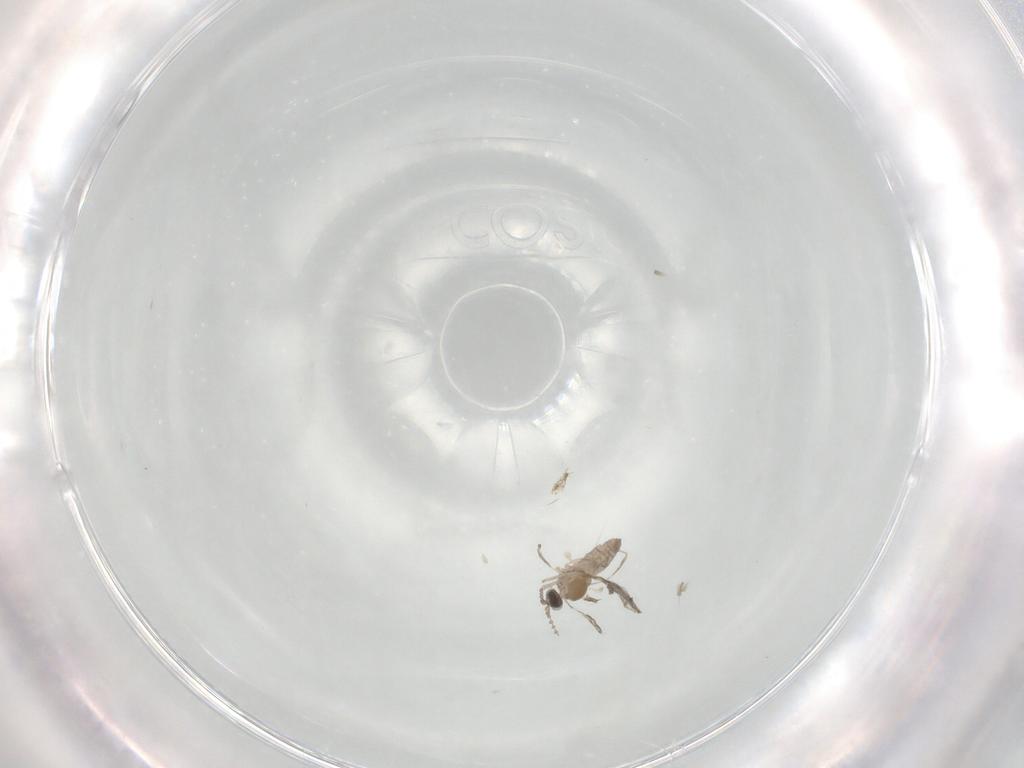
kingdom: Animalia
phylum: Arthropoda
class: Insecta
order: Diptera
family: Cecidomyiidae
